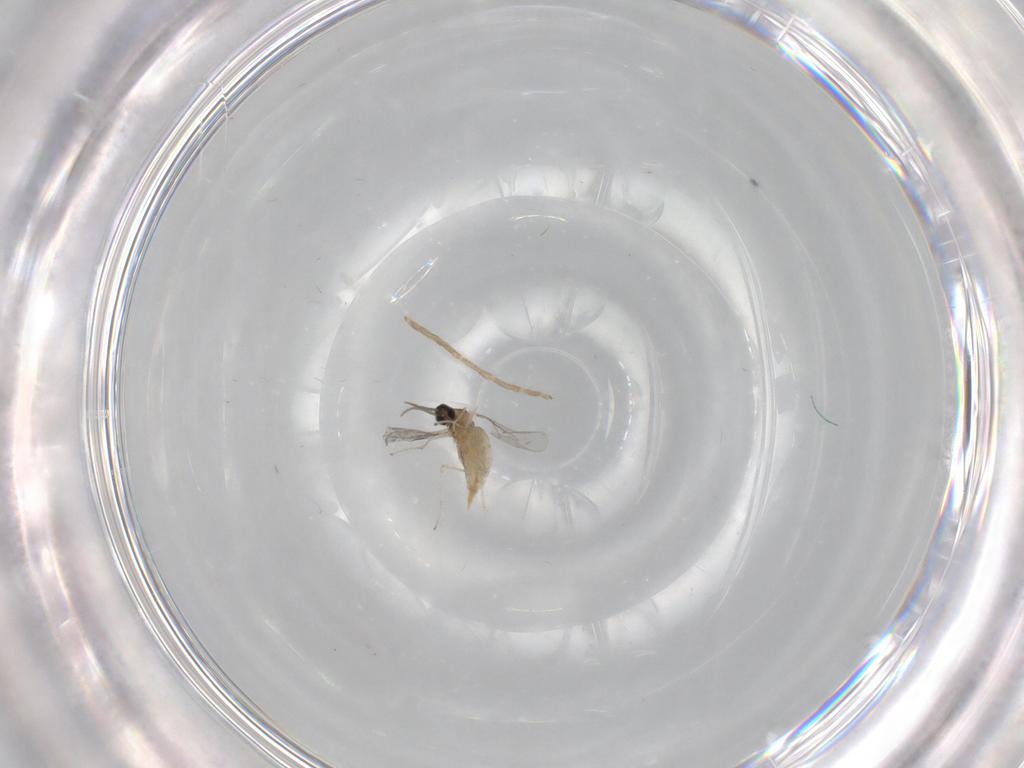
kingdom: Animalia
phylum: Arthropoda
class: Insecta
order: Diptera
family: Chironomidae
